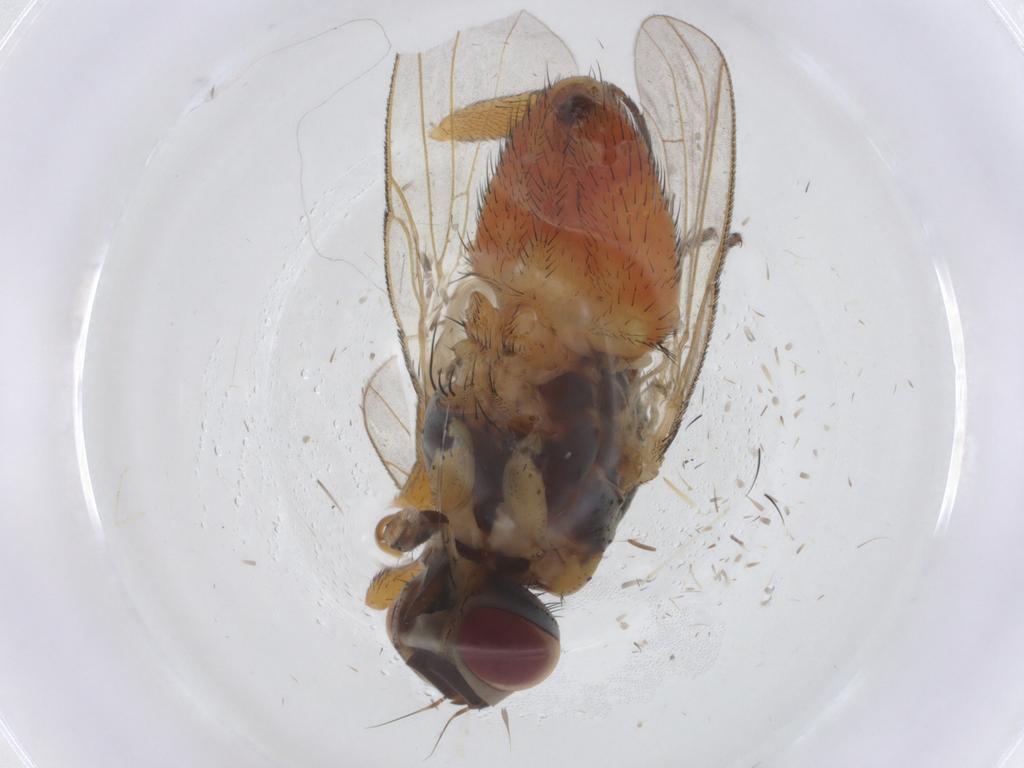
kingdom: Animalia
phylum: Arthropoda
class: Insecta
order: Diptera
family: Muscidae
